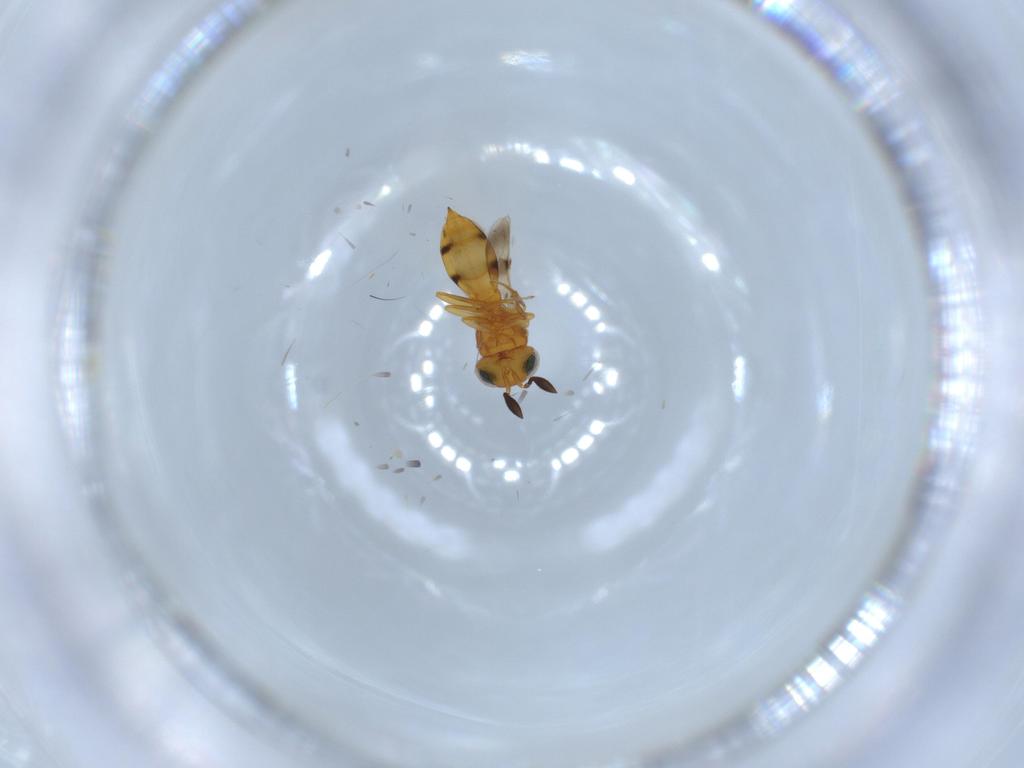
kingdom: Animalia
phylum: Arthropoda
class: Insecta
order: Hymenoptera
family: Scelionidae
